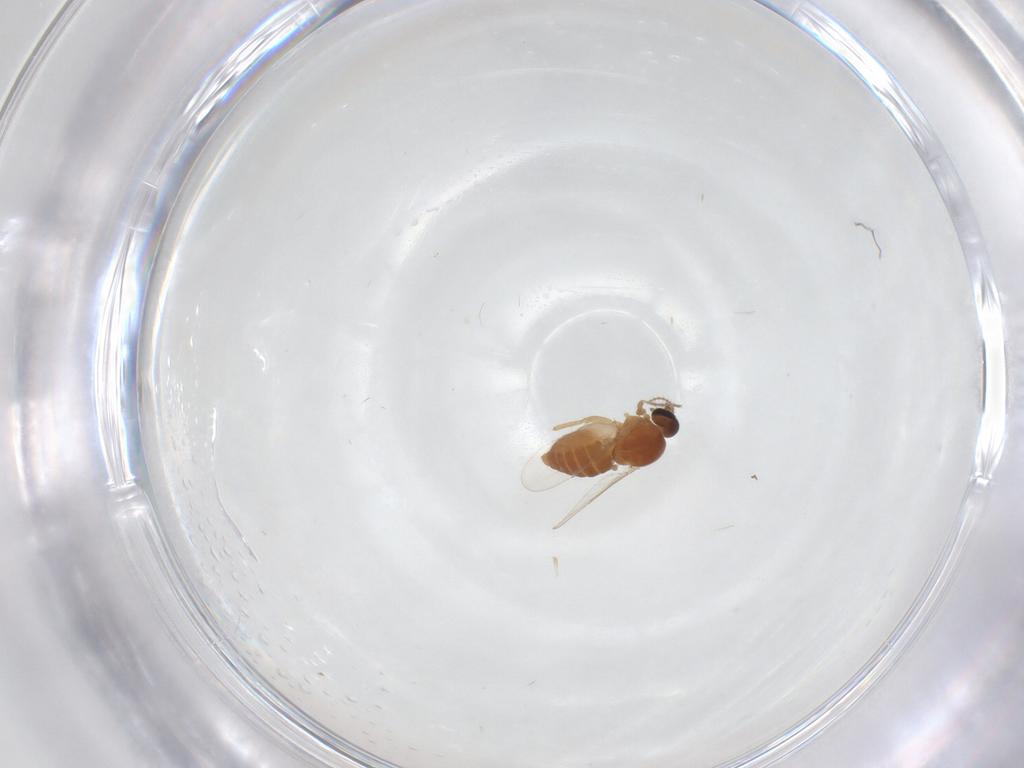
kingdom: Animalia
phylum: Arthropoda
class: Insecta
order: Diptera
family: Ceratopogonidae
